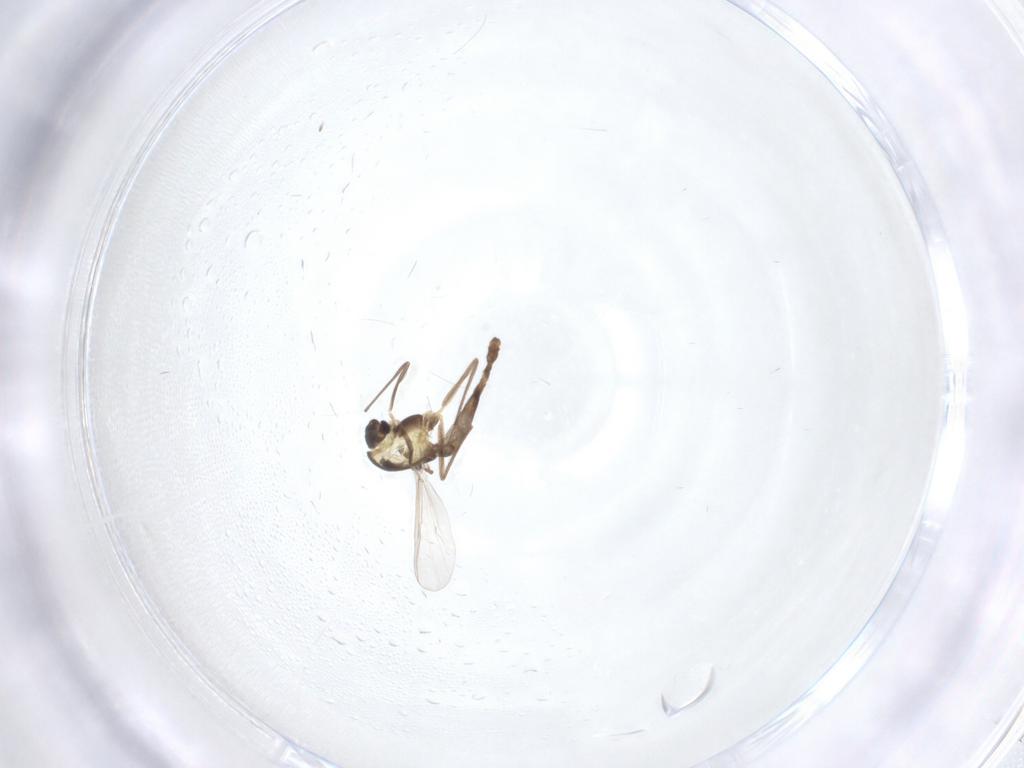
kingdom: Animalia
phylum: Arthropoda
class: Insecta
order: Diptera
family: Chironomidae
